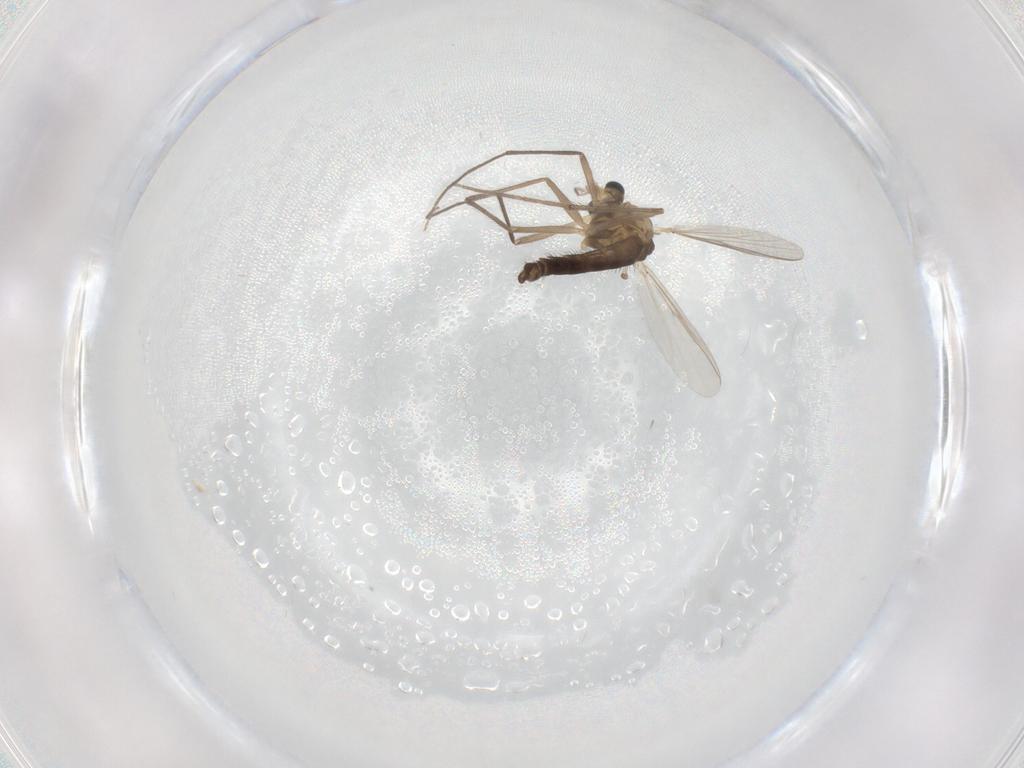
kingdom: Animalia
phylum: Arthropoda
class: Insecta
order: Diptera
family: Chironomidae
